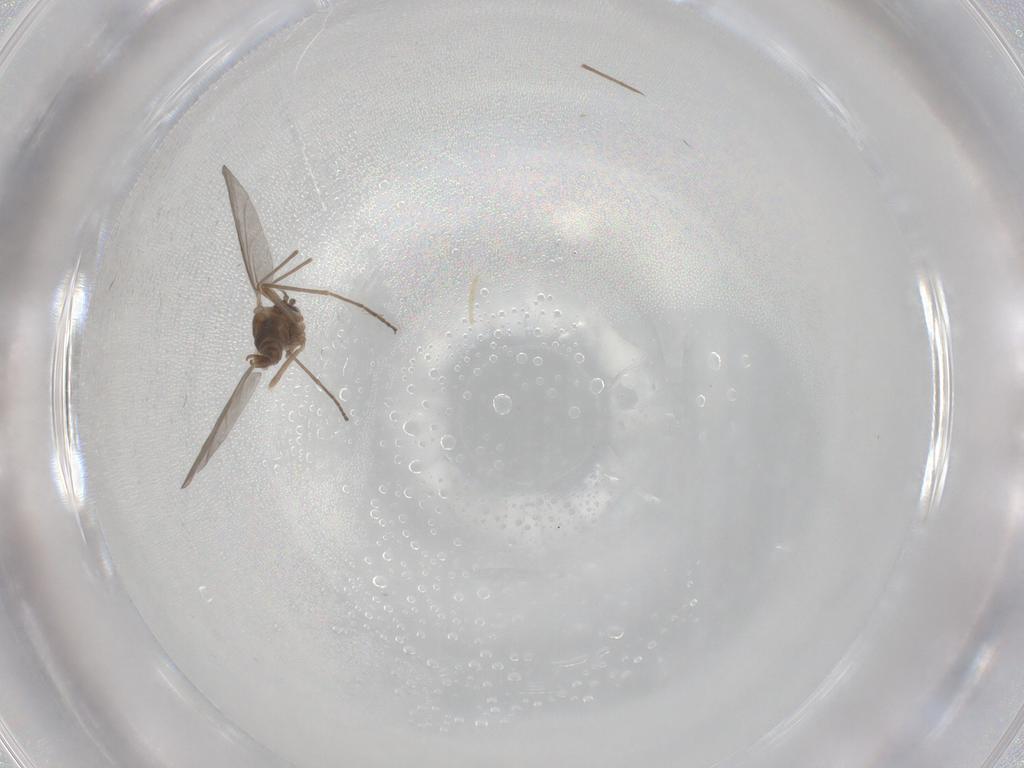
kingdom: Animalia
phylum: Arthropoda
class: Insecta
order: Diptera
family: Cecidomyiidae
